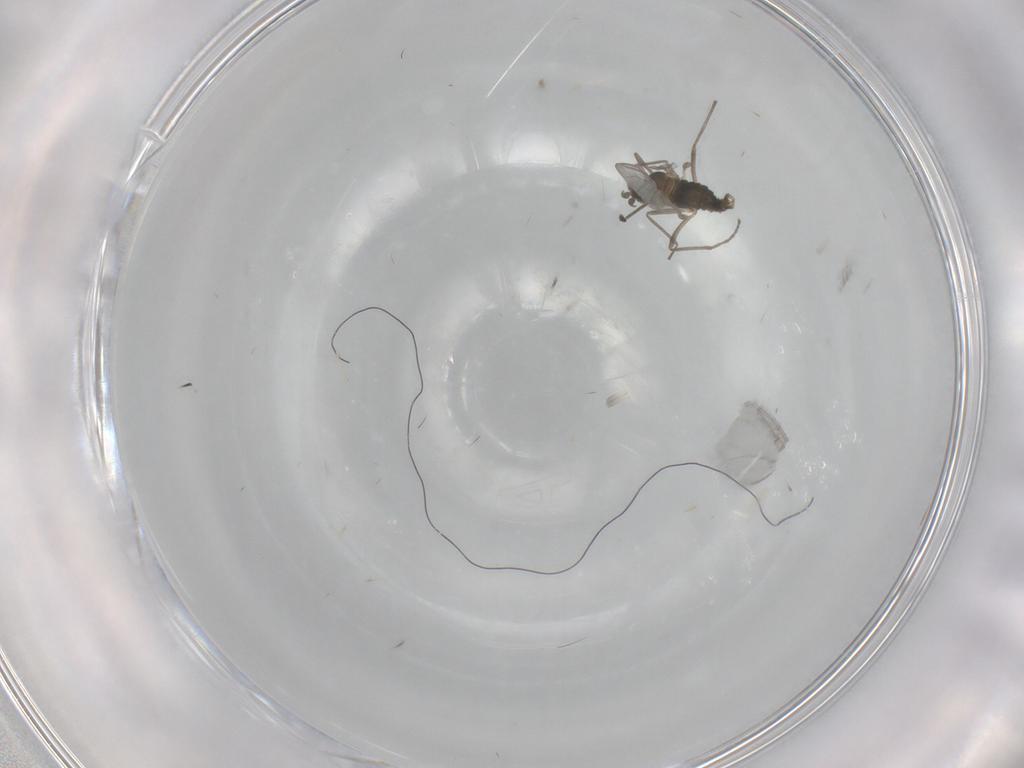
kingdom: Animalia
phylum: Arthropoda
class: Insecta
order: Diptera
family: Cecidomyiidae
